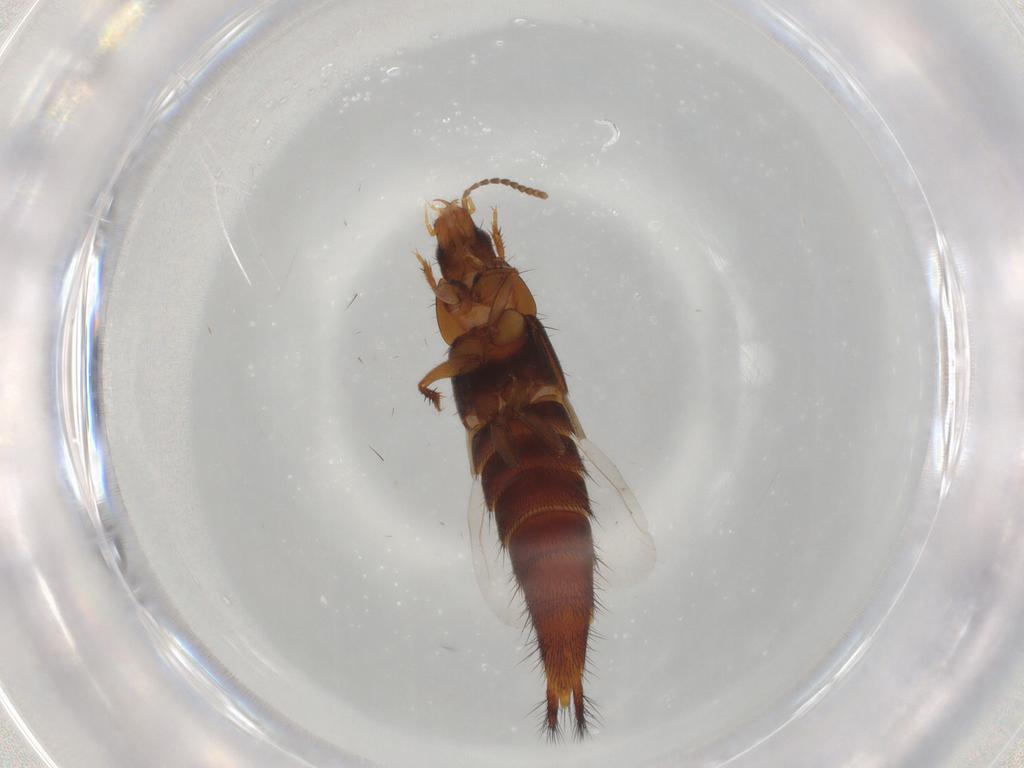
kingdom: Animalia
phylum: Arthropoda
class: Insecta
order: Coleoptera
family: Staphylinidae
